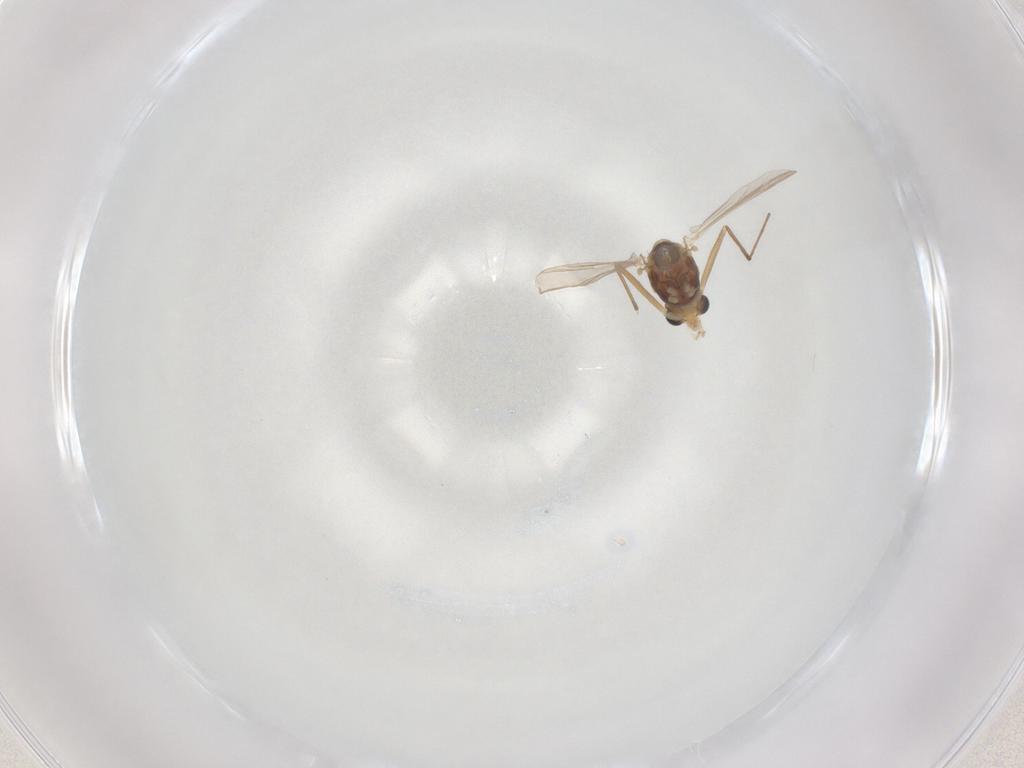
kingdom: Animalia
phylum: Arthropoda
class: Insecta
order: Diptera
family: Chironomidae
